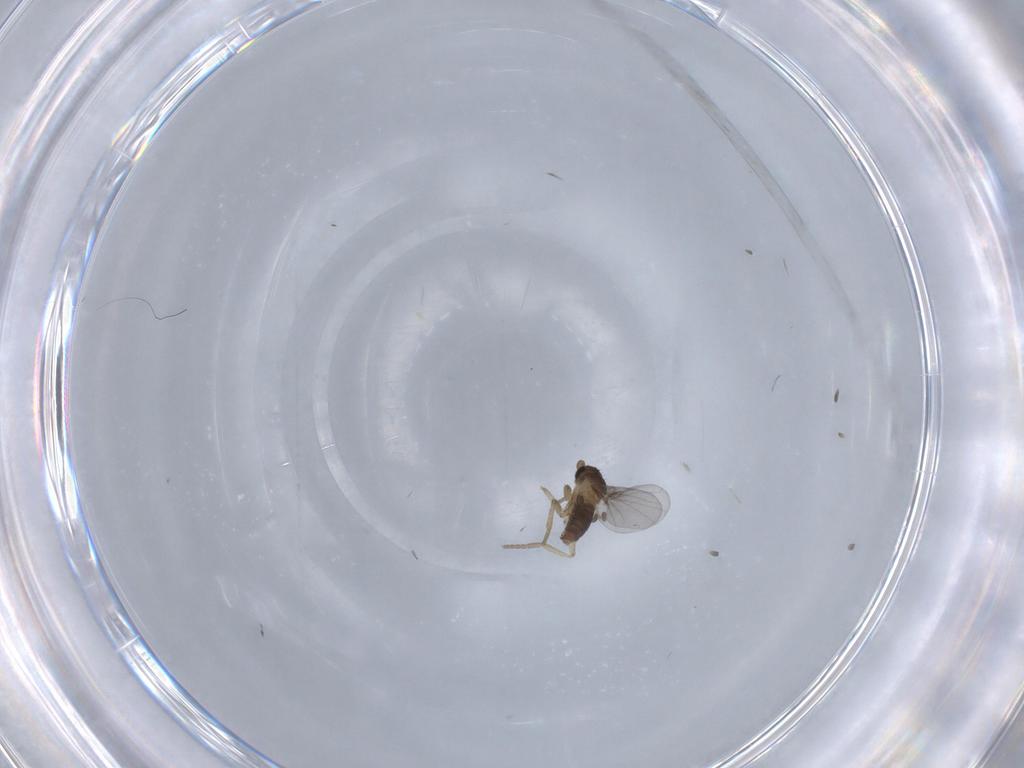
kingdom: Animalia
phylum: Arthropoda
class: Insecta
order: Diptera
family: Phoridae
